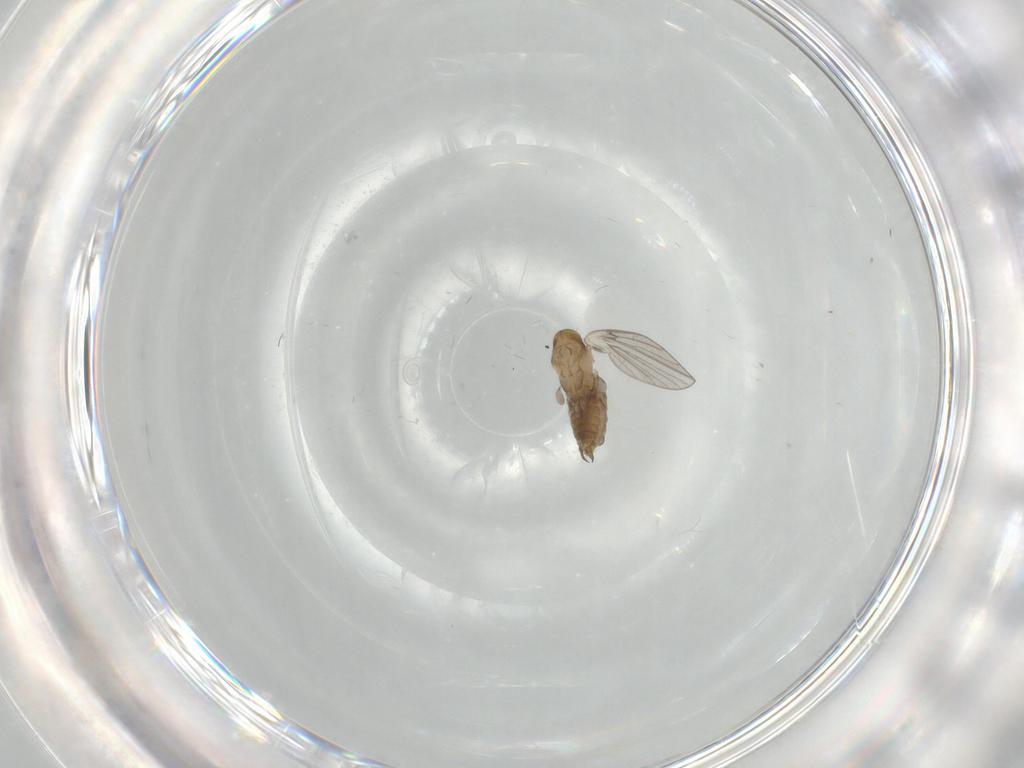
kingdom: Animalia
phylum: Arthropoda
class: Insecta
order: Diptera
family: Psychodidae
